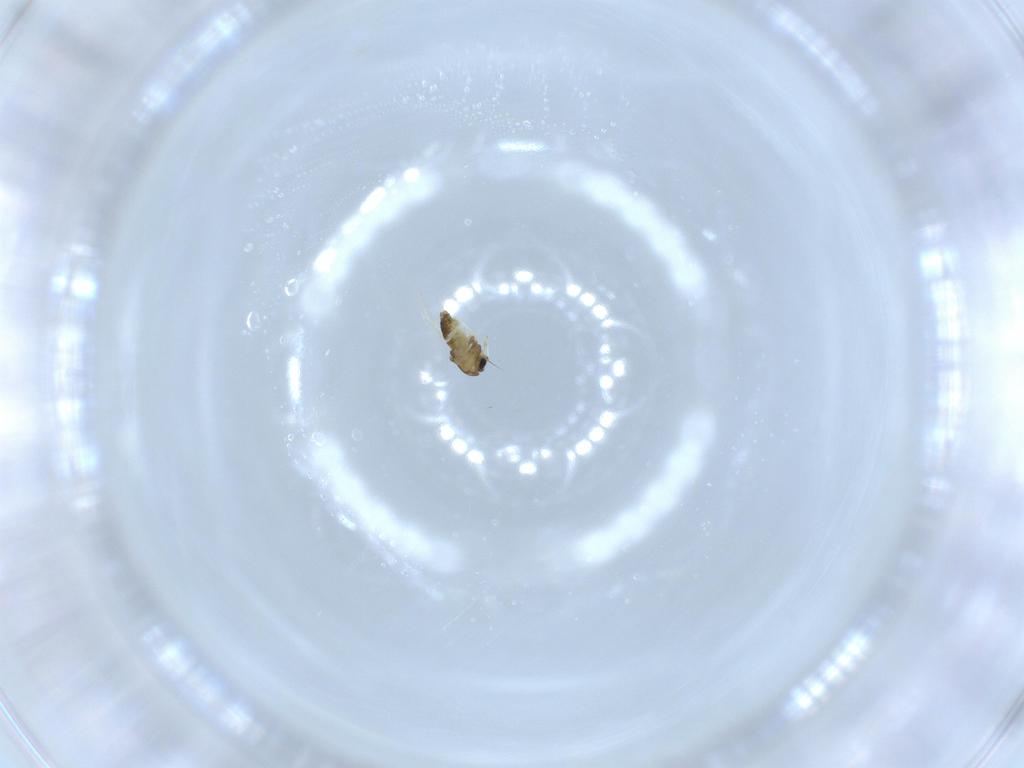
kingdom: Animalia
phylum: Arthropoda
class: Insecta
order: Diptera
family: Chironomidae
